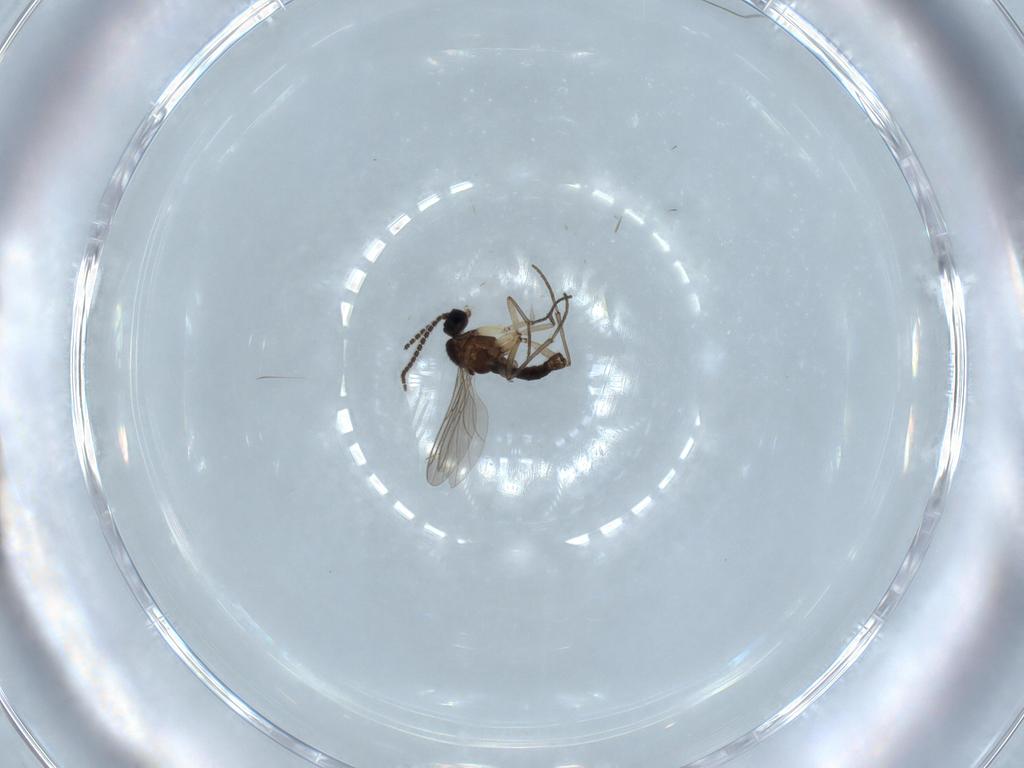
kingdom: Animalia
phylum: Arthropoda
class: Insecta
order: Diptera
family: Sciaridae
